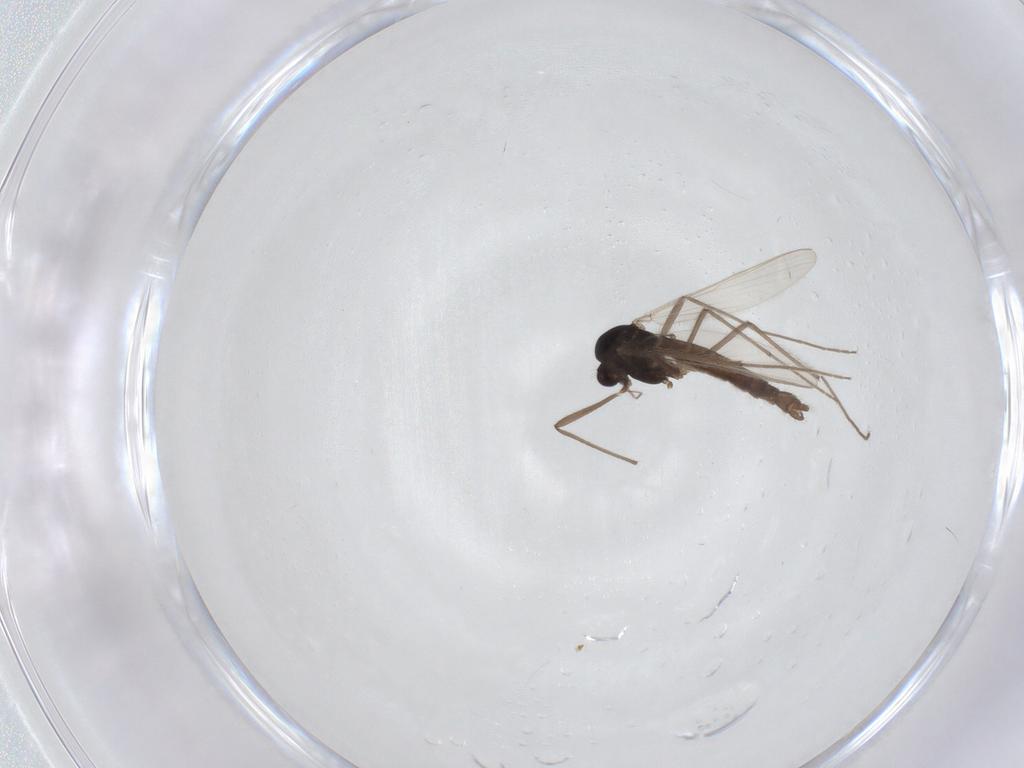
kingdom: Animalia
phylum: Arthropoda
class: Insecta
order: Diptera
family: Chironomidae
